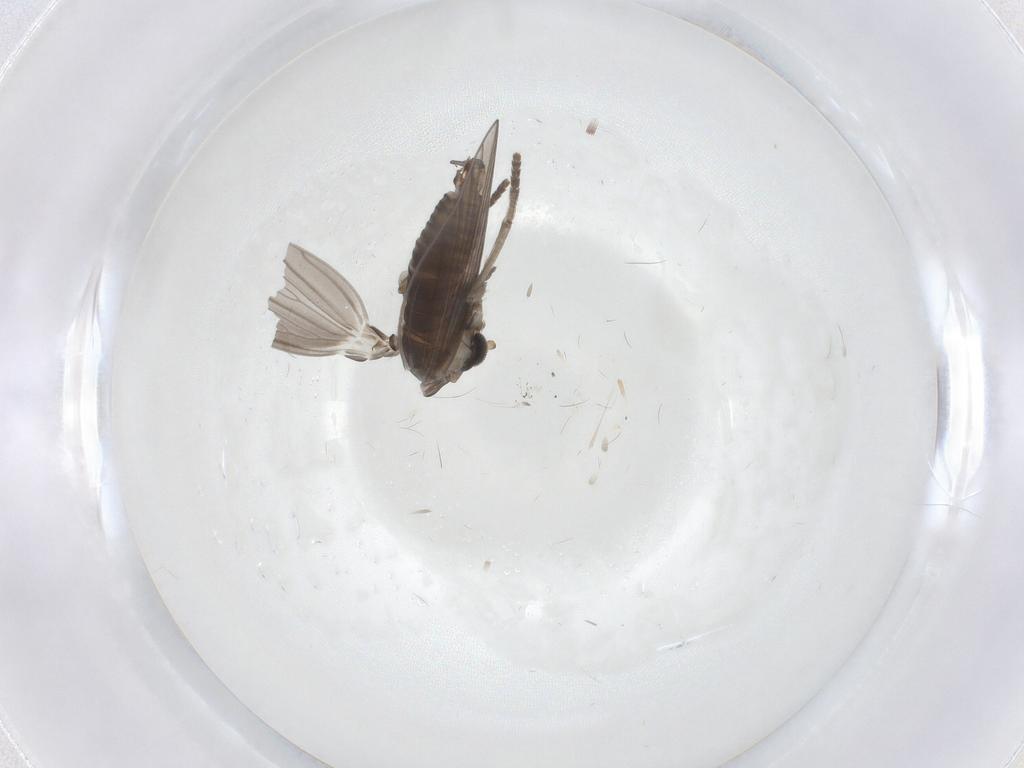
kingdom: Animalia
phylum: Arthropoda
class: Insecta
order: Diptera
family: Psychodidae
